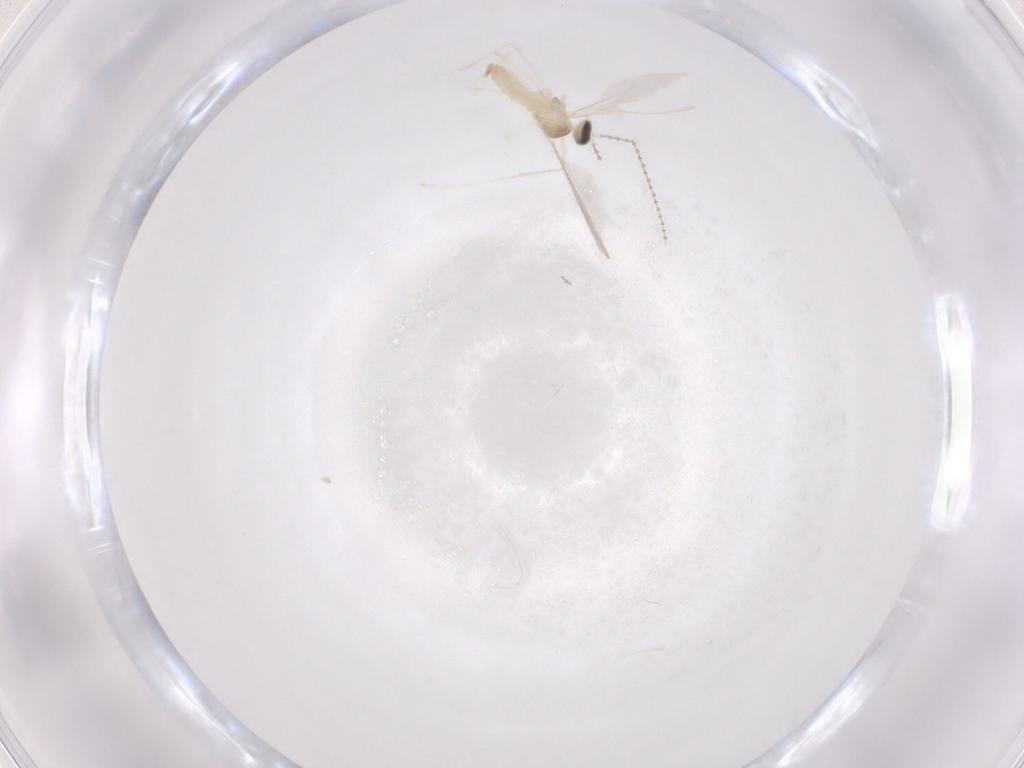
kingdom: Animalia
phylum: Arthropoda
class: Insecta
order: Diptera
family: Cecidomyiidae
